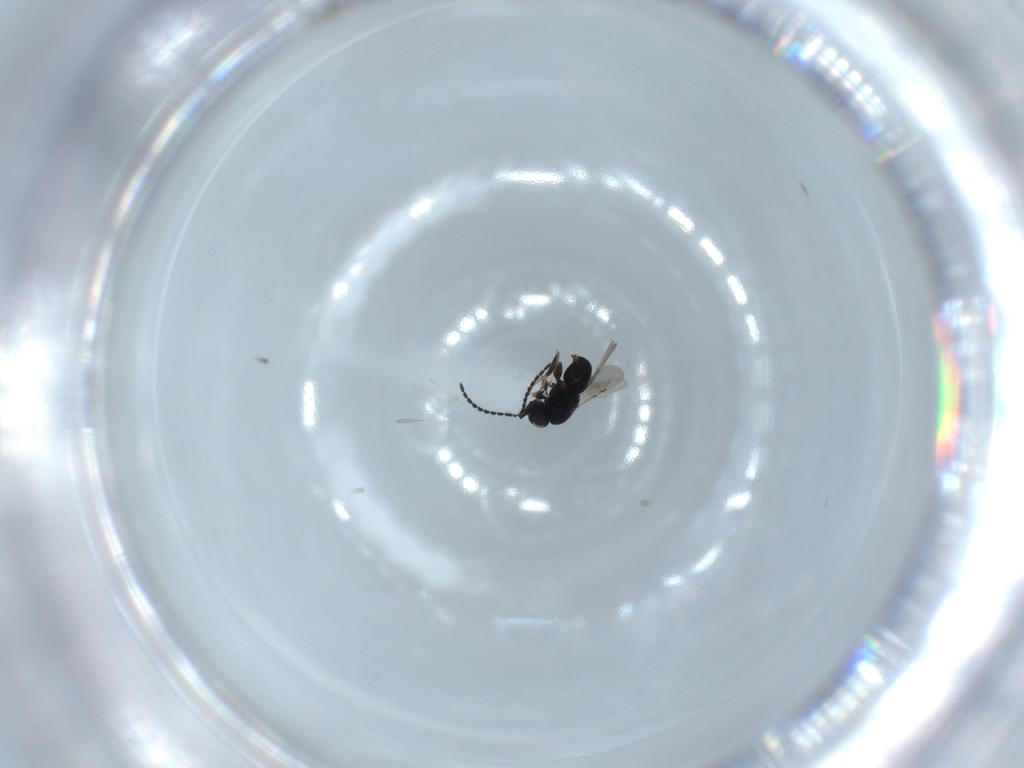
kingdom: Animalia
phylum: Arthropoda
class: Insecta
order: Hymenoptera
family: Ceraphronidae
